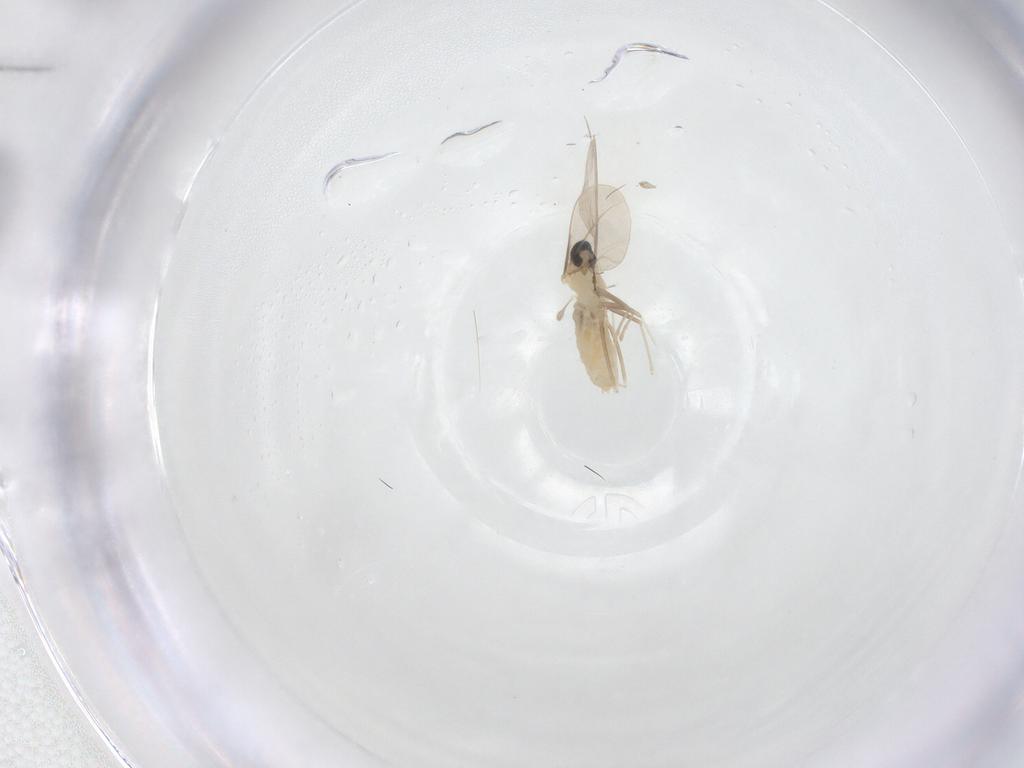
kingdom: Animalia
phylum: Arthropoda
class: Insecta
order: Diptera
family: Cecidomyiidae
